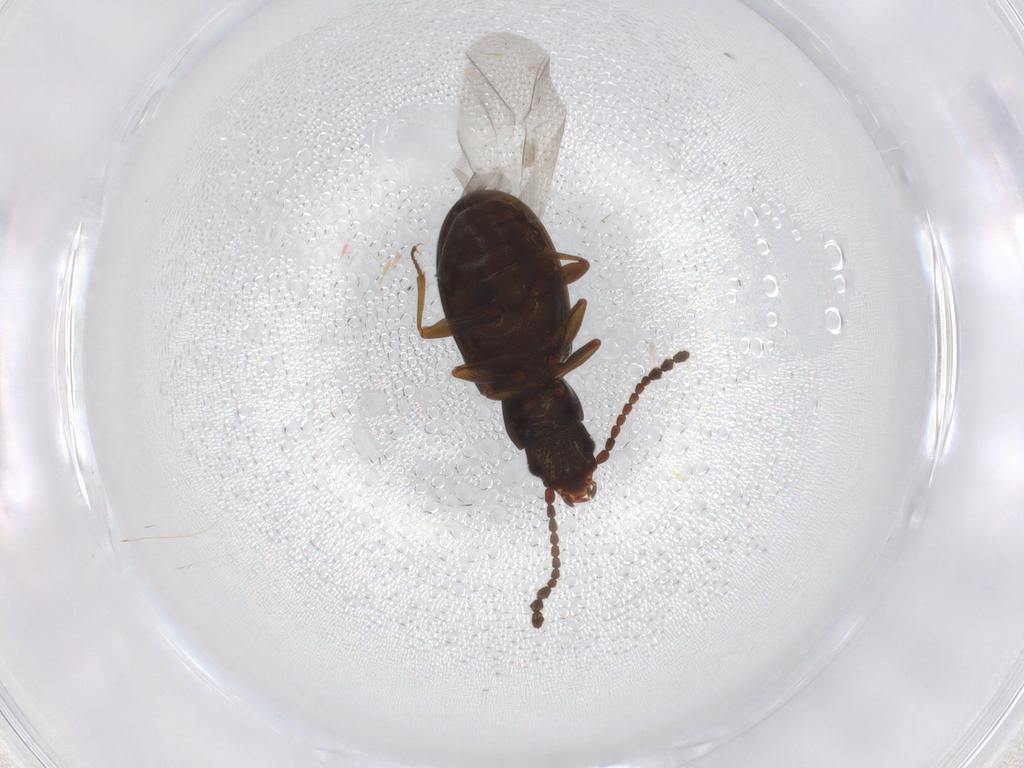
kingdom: Animalia
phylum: Arthropoda
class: Insecta
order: Coleoptera
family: Laemophloeidae
